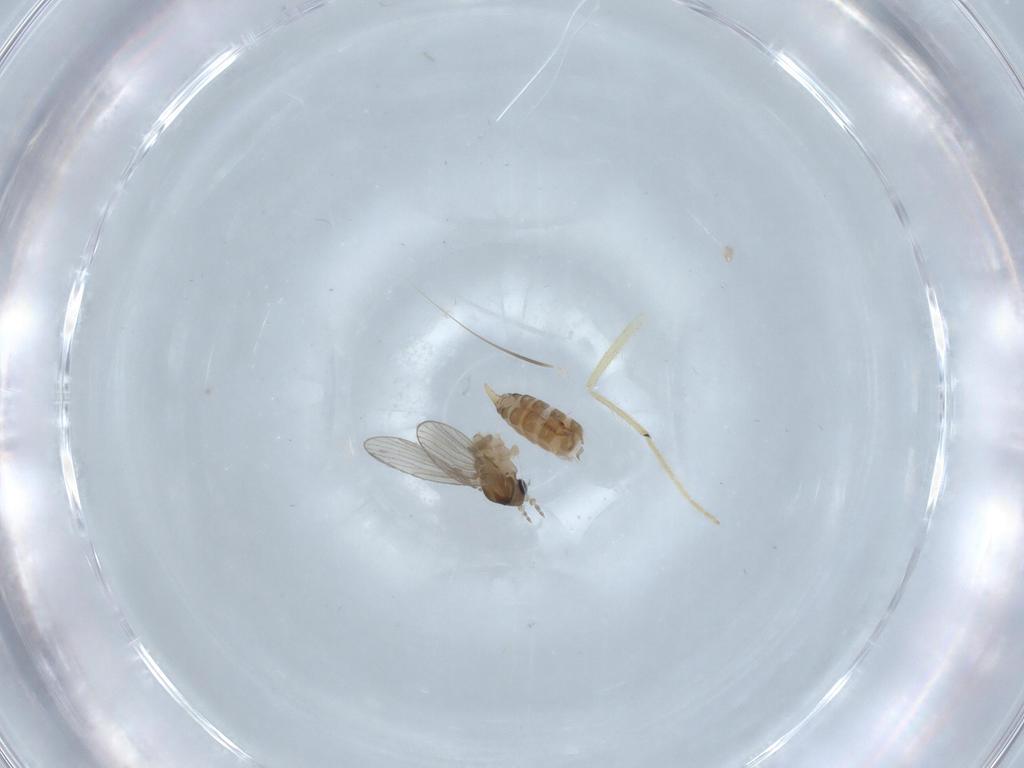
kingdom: Animalia
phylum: Arthropoda
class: Insecta
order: Diptera
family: Psychodidae
